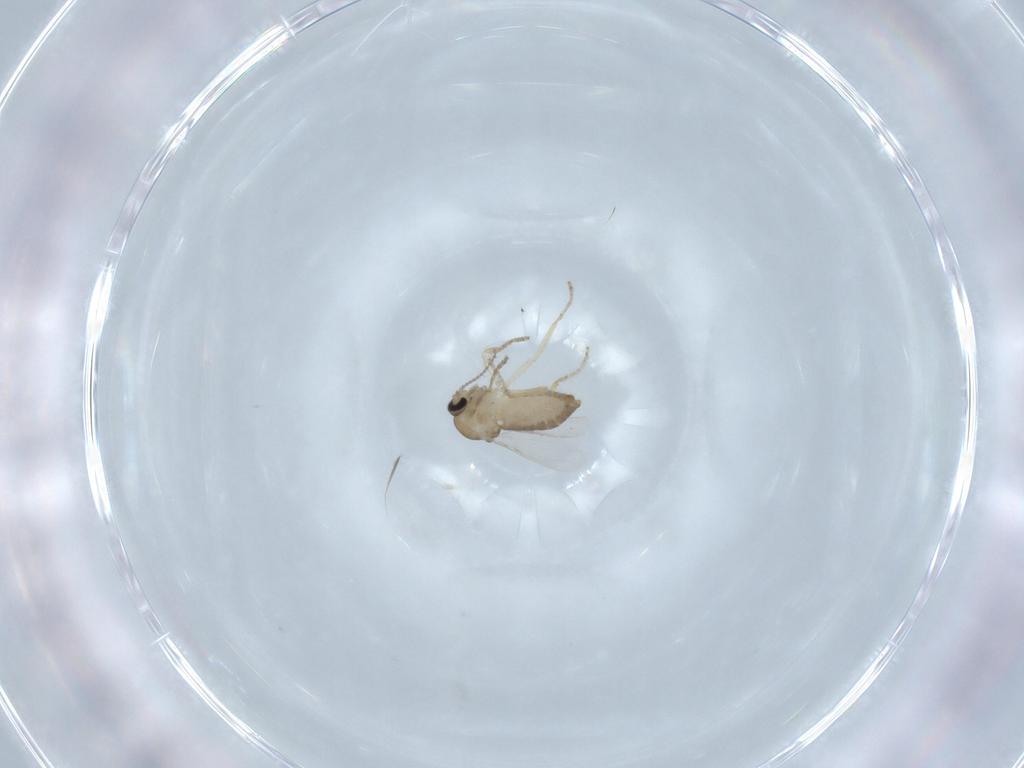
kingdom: Animalia
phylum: Arthropoda
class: Insecta
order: Diptera
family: Ceratopogonidae
